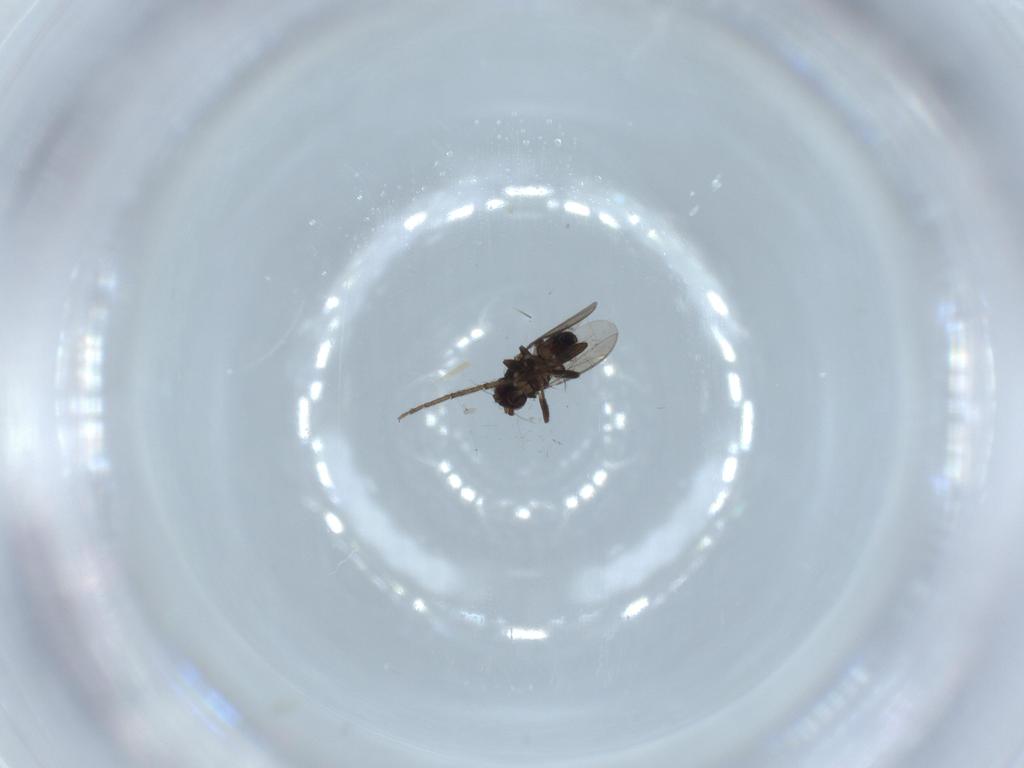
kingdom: Animalia
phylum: Arthropoda
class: Insecta
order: Diptera
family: Sphaeroceridae
